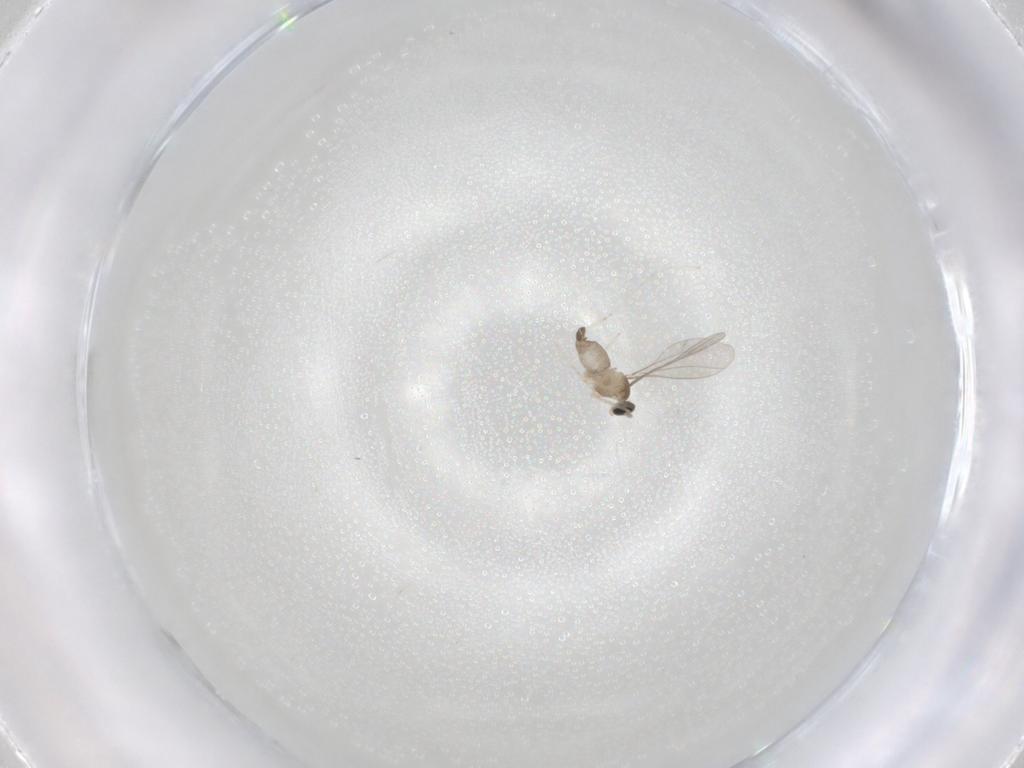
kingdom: Animalia
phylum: Arthropoda
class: Insecta
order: Diptera
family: Cecidomyiidae
